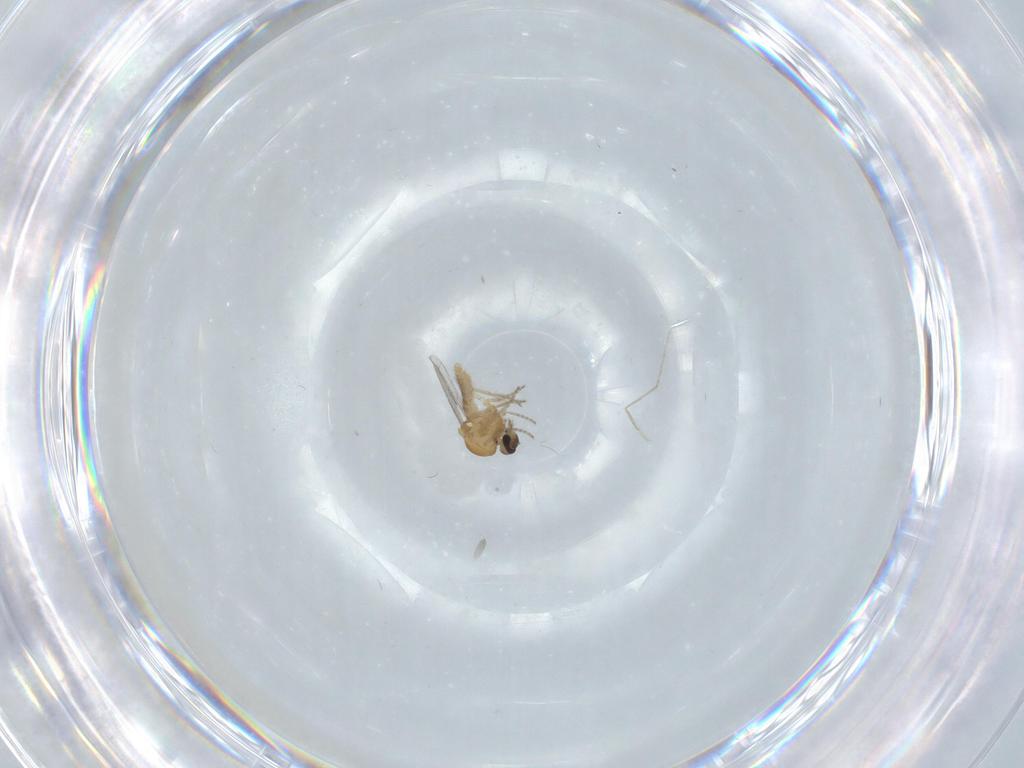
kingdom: Animalia
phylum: Arthropoda
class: Insecta
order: Diptera
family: Ceratopogonidae
